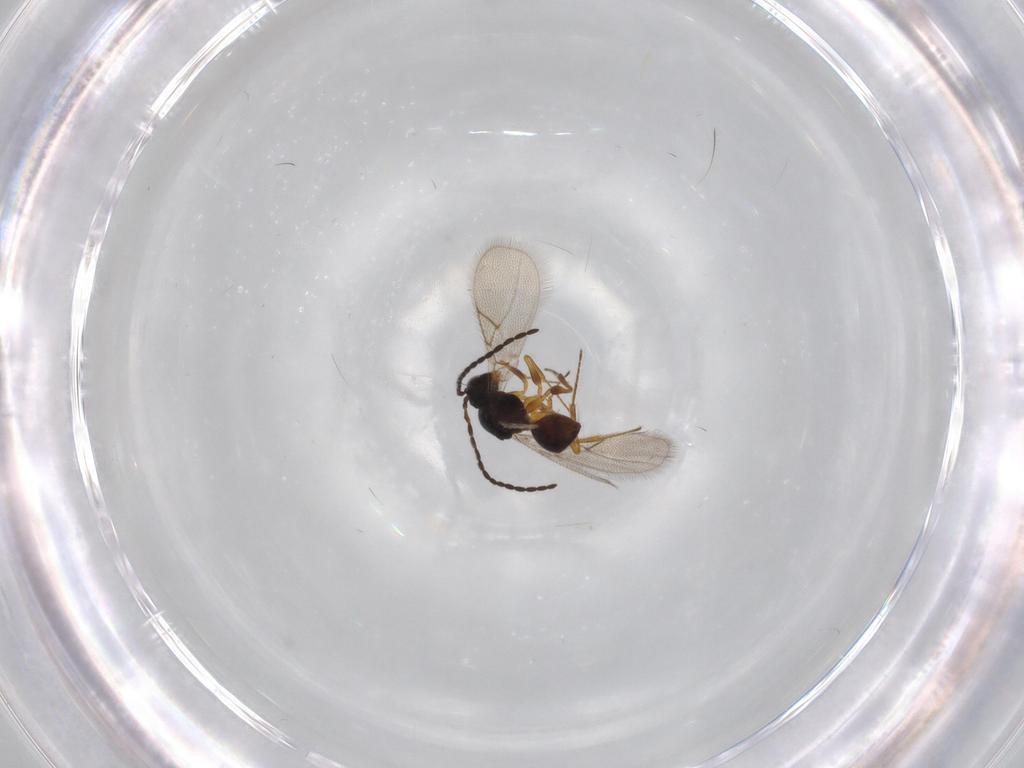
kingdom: Animalia
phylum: Arthropoda
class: Insecta
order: Hymenoptera
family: Figitidae
